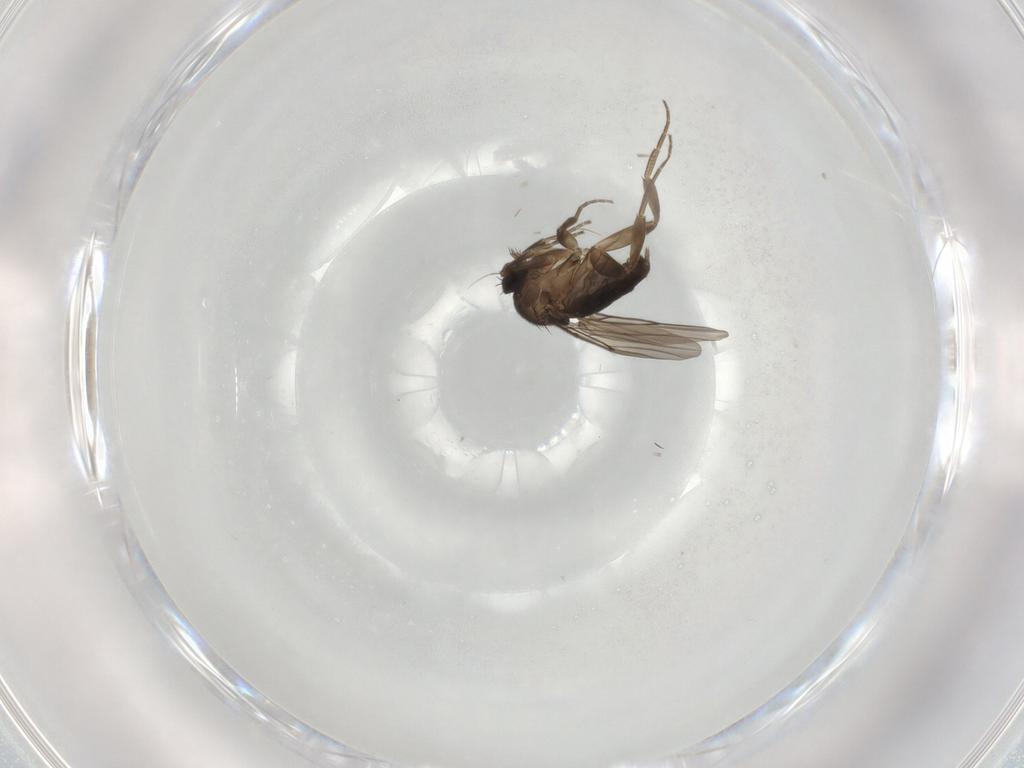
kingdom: Animalia
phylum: Arthropoda
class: Insecta
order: Diptera
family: Phoridae
